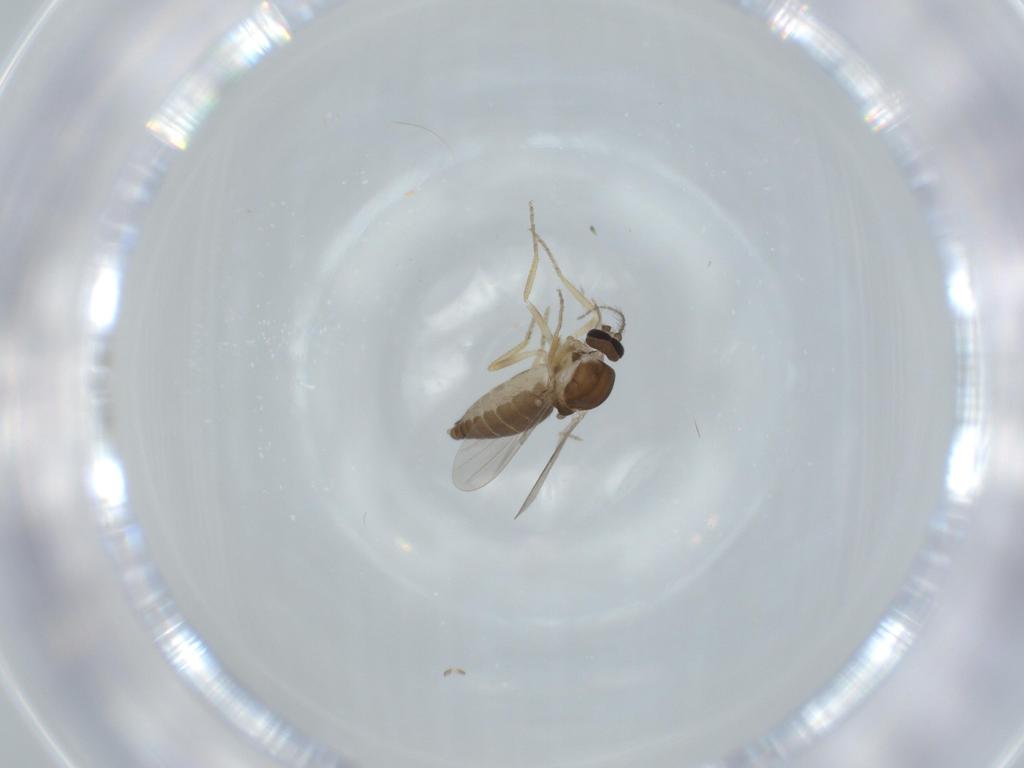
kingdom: Animalia
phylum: Arthropoda
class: Insecta
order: Diptera
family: Ceratopogonidae
